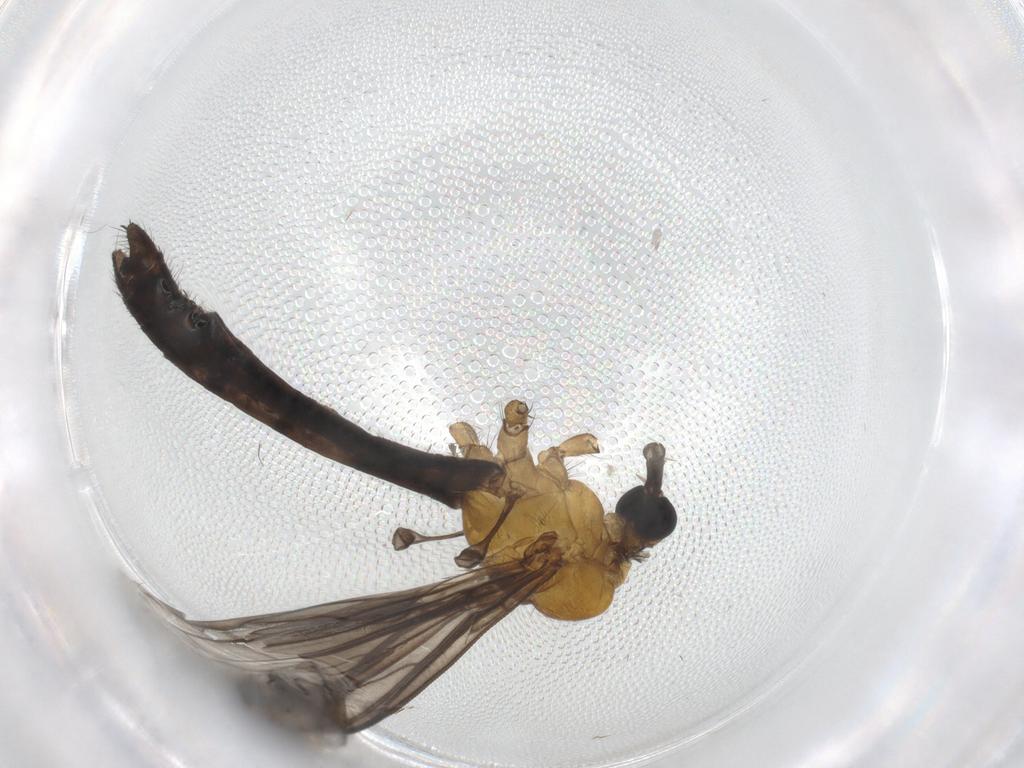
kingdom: Animalia
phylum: Arthropoda
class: Insecta
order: Diptera
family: Limoniidae
